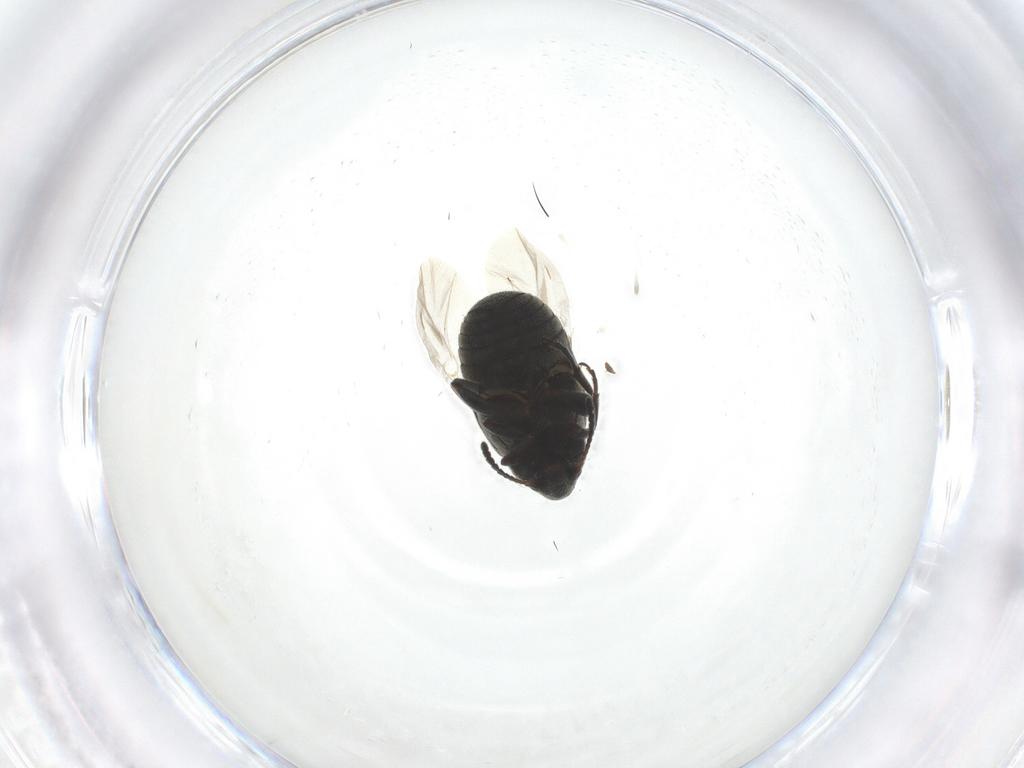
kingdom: Animalia
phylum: Arthropoda
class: Insecta
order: Coleoptera
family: Chrysomelidae
